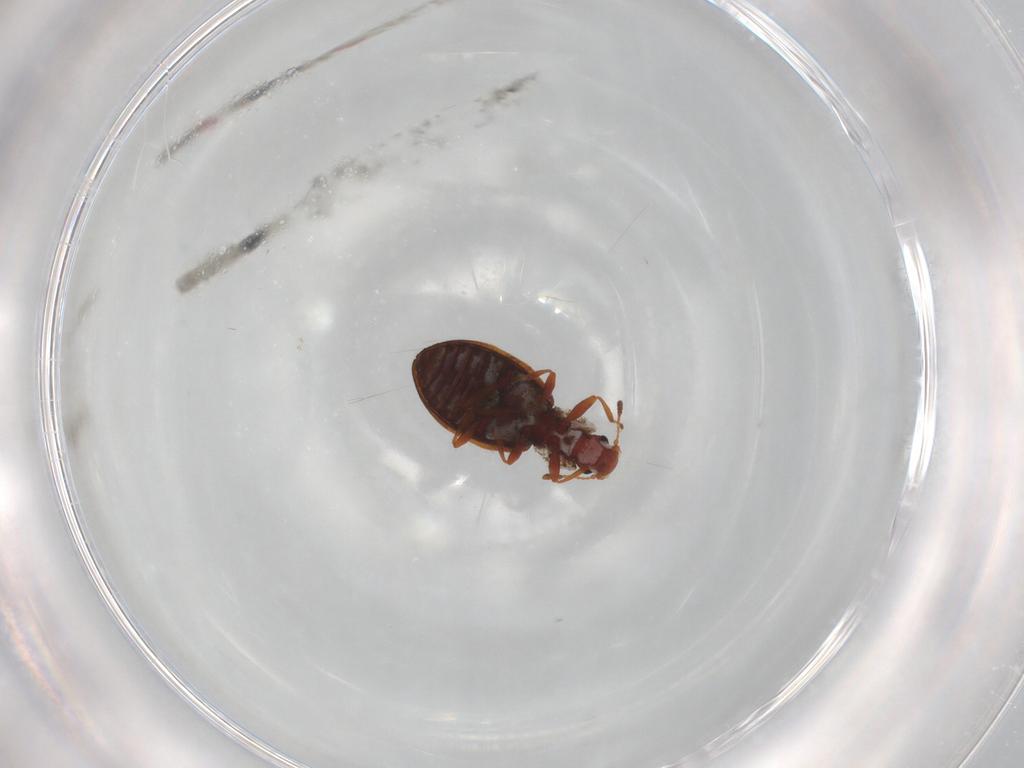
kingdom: Animalia
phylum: Arthropoda
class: Insecta
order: Coleoptera
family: Latridiidae
